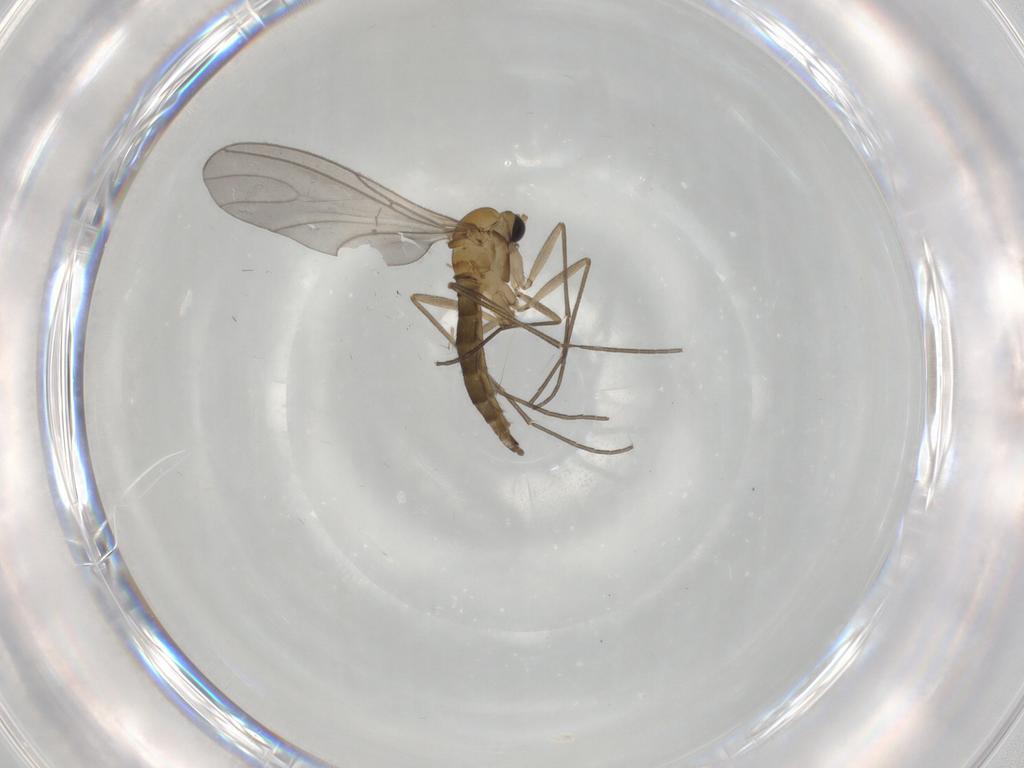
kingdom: Animalia
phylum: Arthropoda
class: Insecta
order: Diptera
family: Sciaridae
